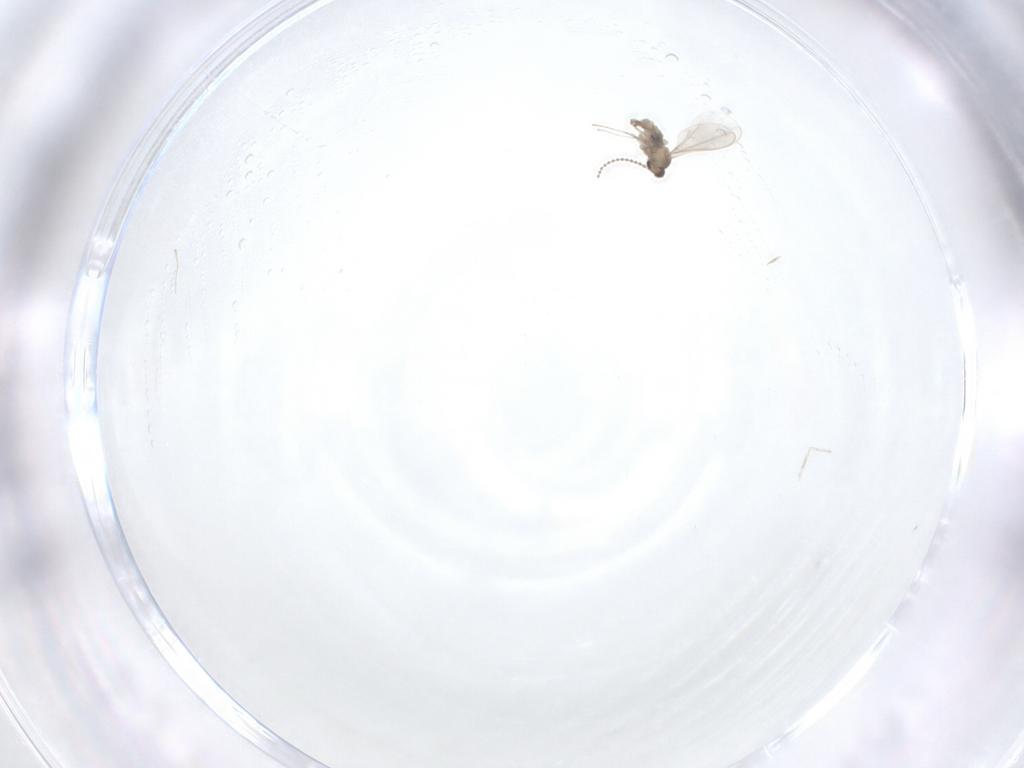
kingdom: Animalia
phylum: Arthropoda
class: Insecta
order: Diptera
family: Cecidomyiidae
